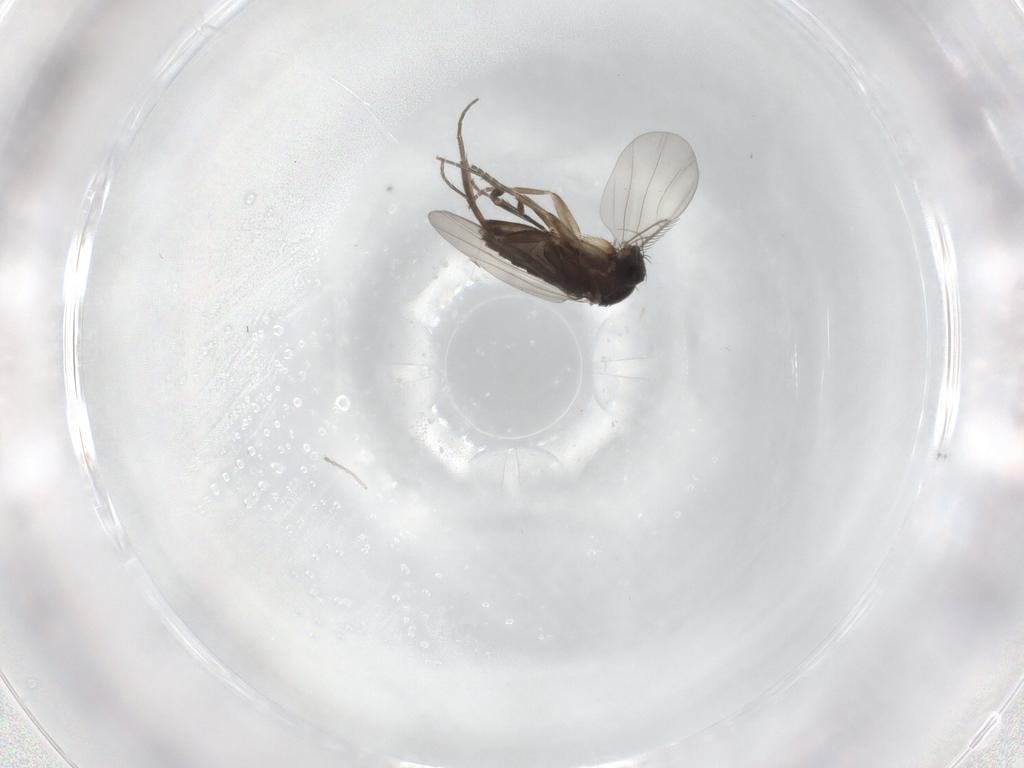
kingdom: Animalia
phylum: Arthropoda
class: Insecta
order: Diptera
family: Phoridae
